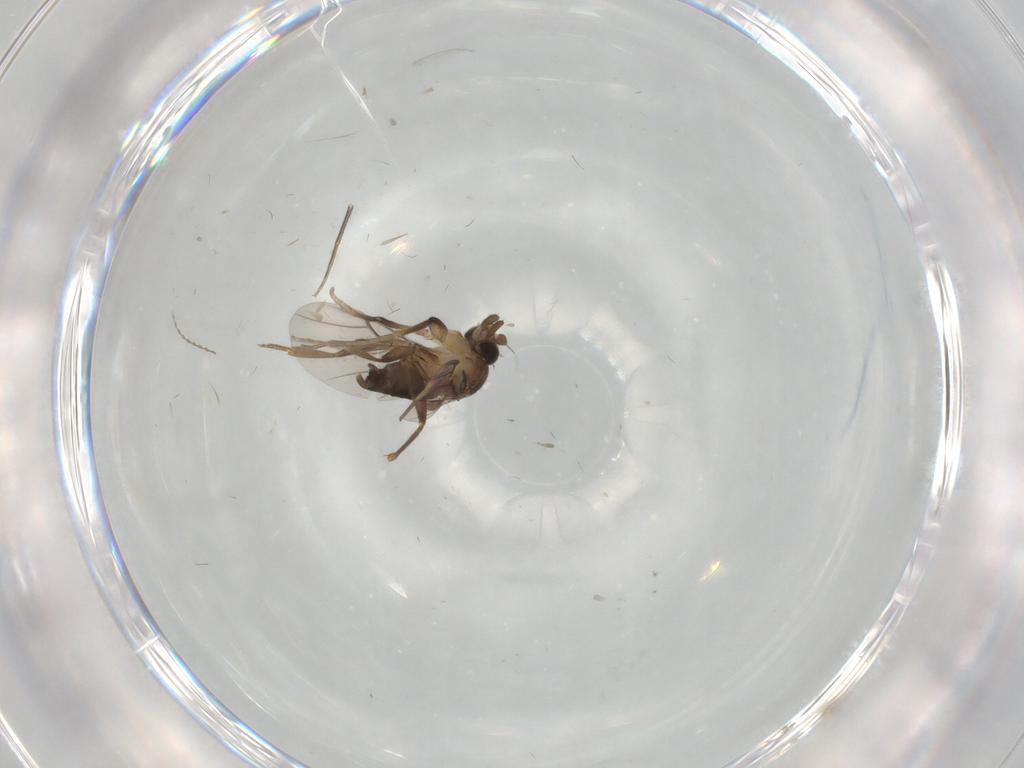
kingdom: Animalia
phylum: Arthropoda
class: Insecta
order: Diptera
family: Phoridae
